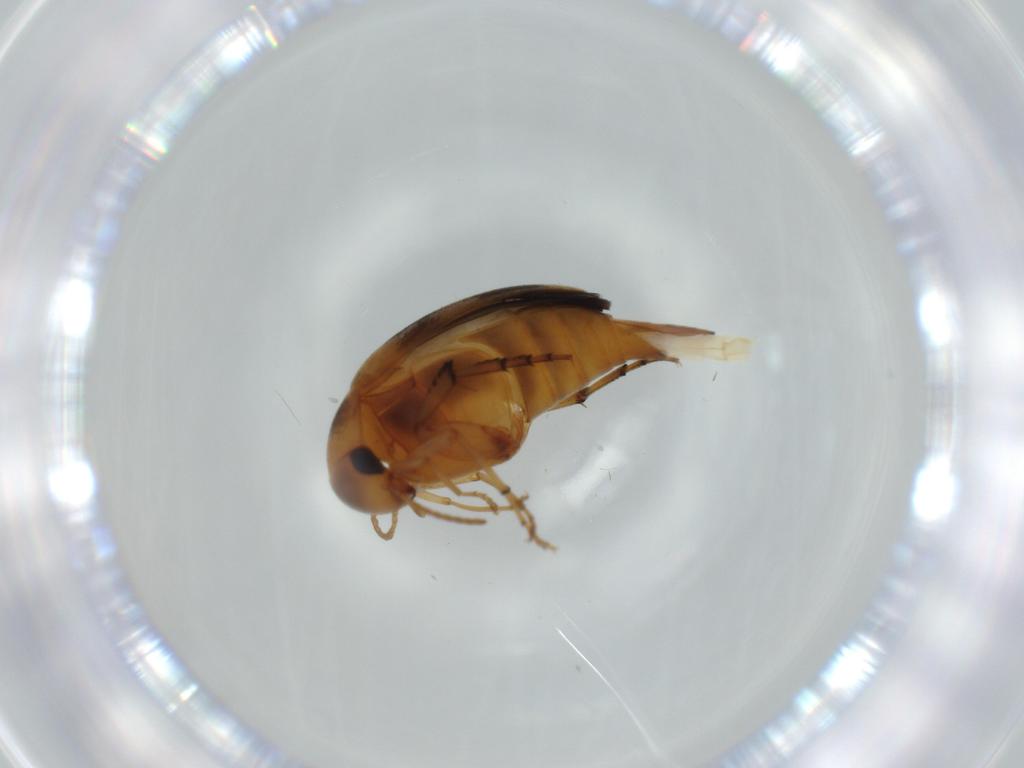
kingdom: Animalia
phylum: Arthropoda
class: Insecta
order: Coleoptera
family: Mordellidae
